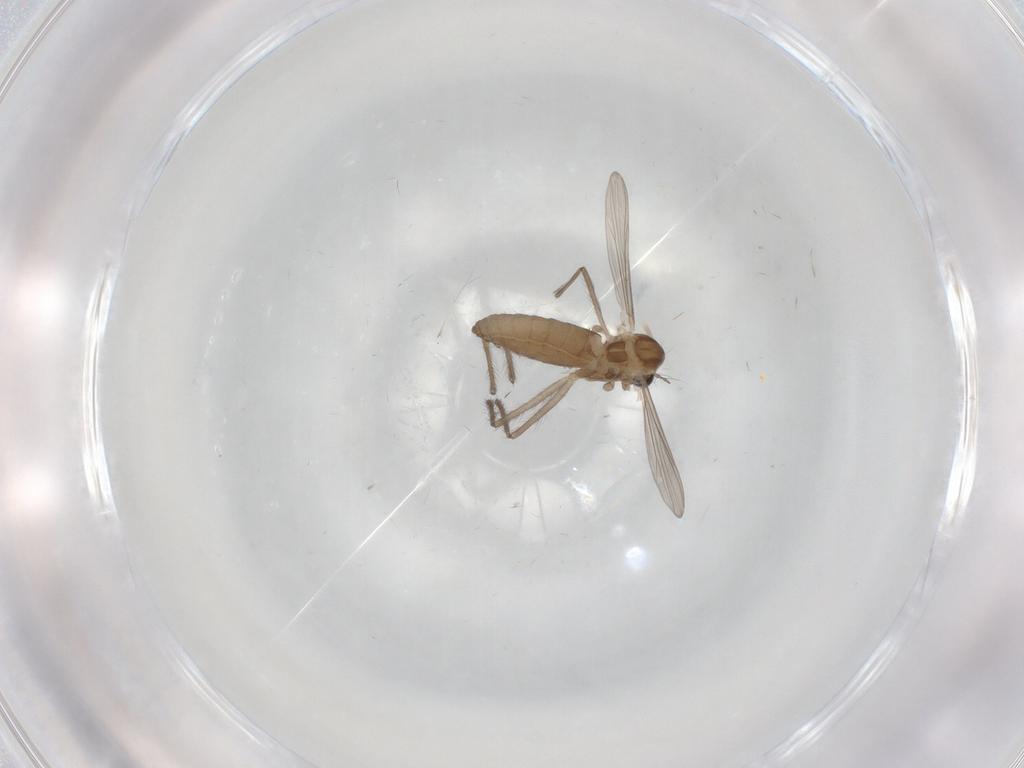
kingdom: Animalia
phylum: Arthropoda
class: Insecta
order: Diptera
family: Chironomidae
